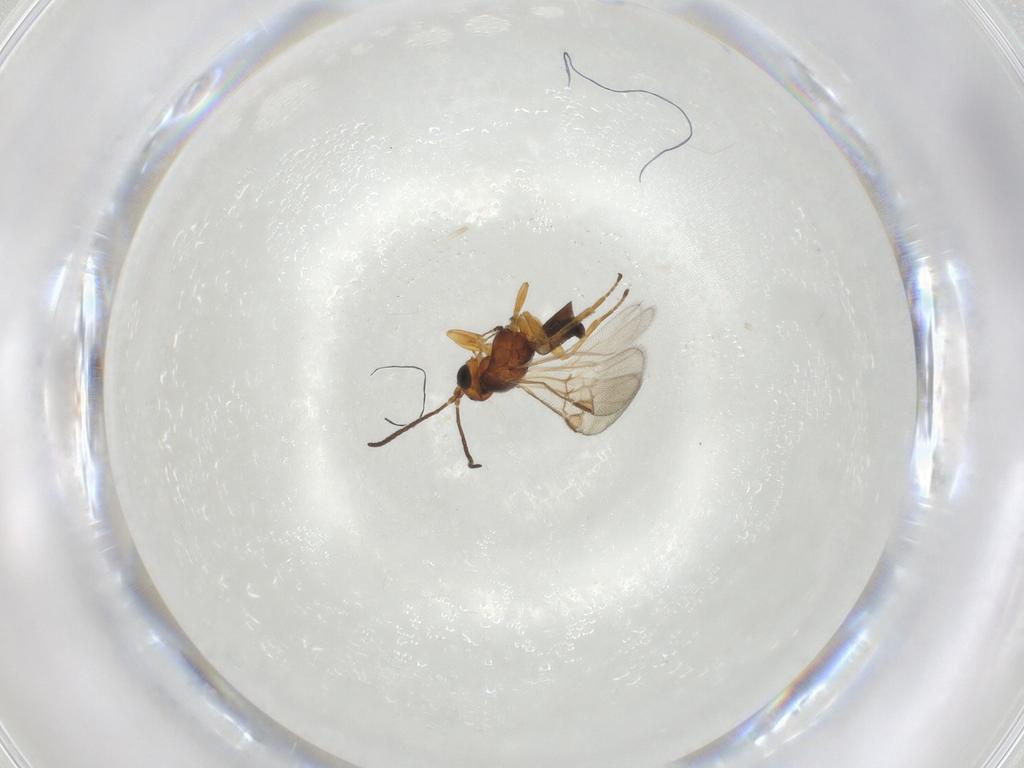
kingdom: Animalia
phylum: Arthropoda
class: Insecta
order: Hymenoptera
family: Braconidae
